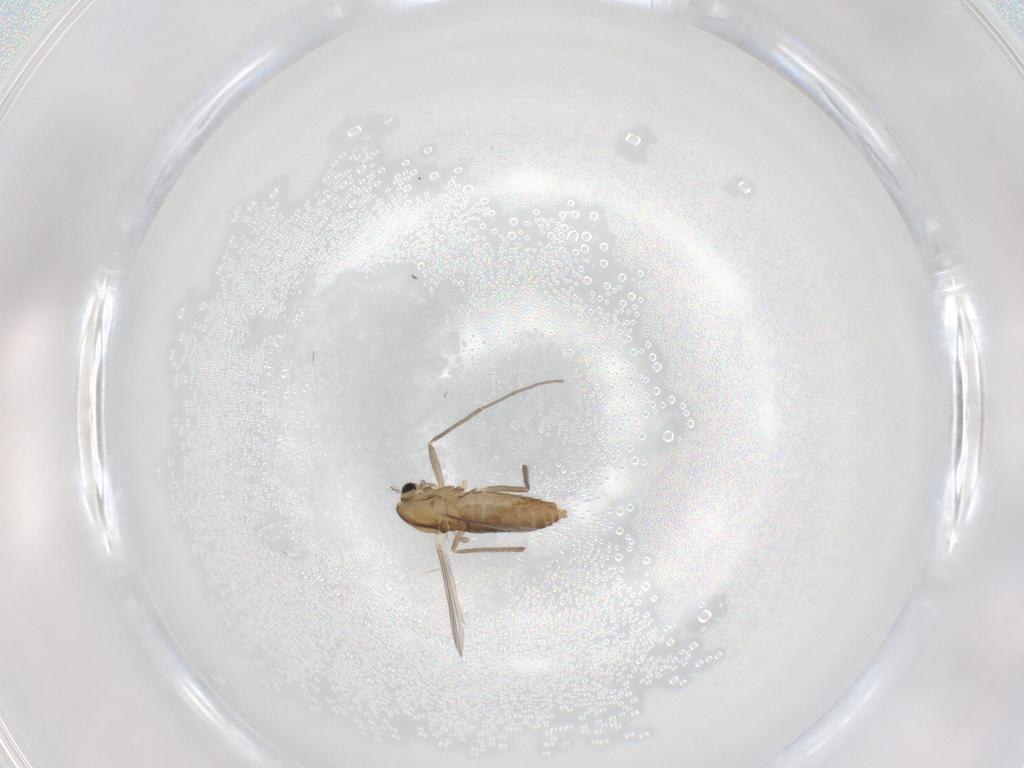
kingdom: Animalia
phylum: Arthropoda
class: Insecta
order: Diptera
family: Chironomidae
